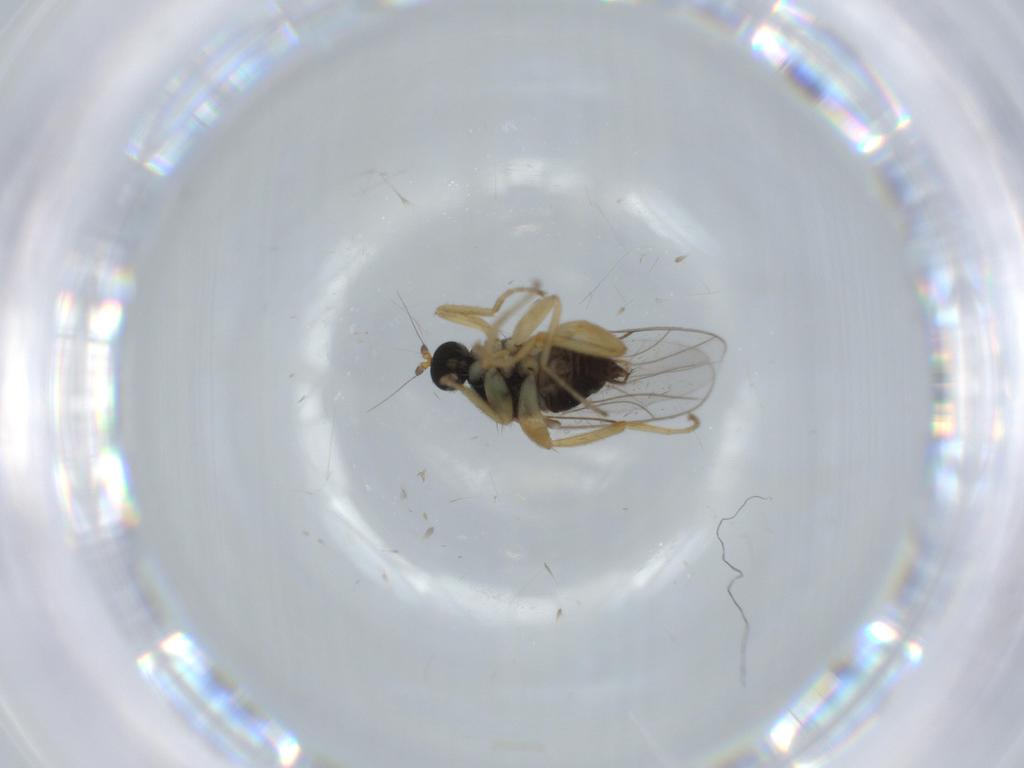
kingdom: Animalia
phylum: Arthropoda
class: Insecta
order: Diptera
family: Hybotidae
